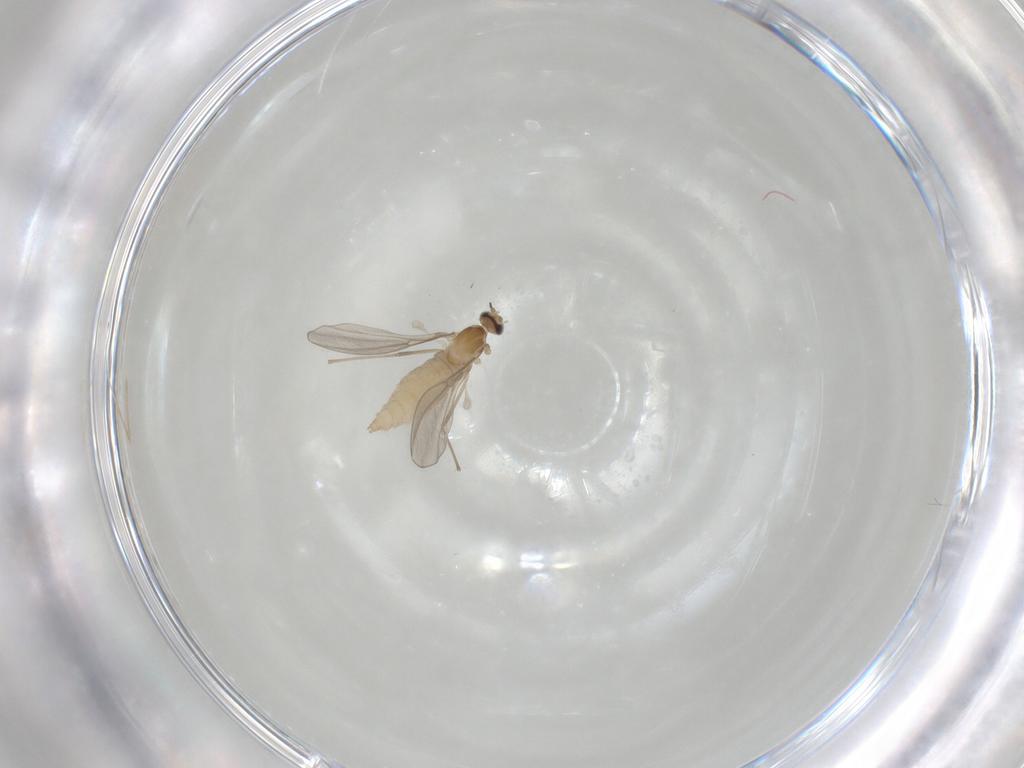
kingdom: Animalia
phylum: Arthropoda
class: Insecta
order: Diptera
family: Cecidomyiidae
